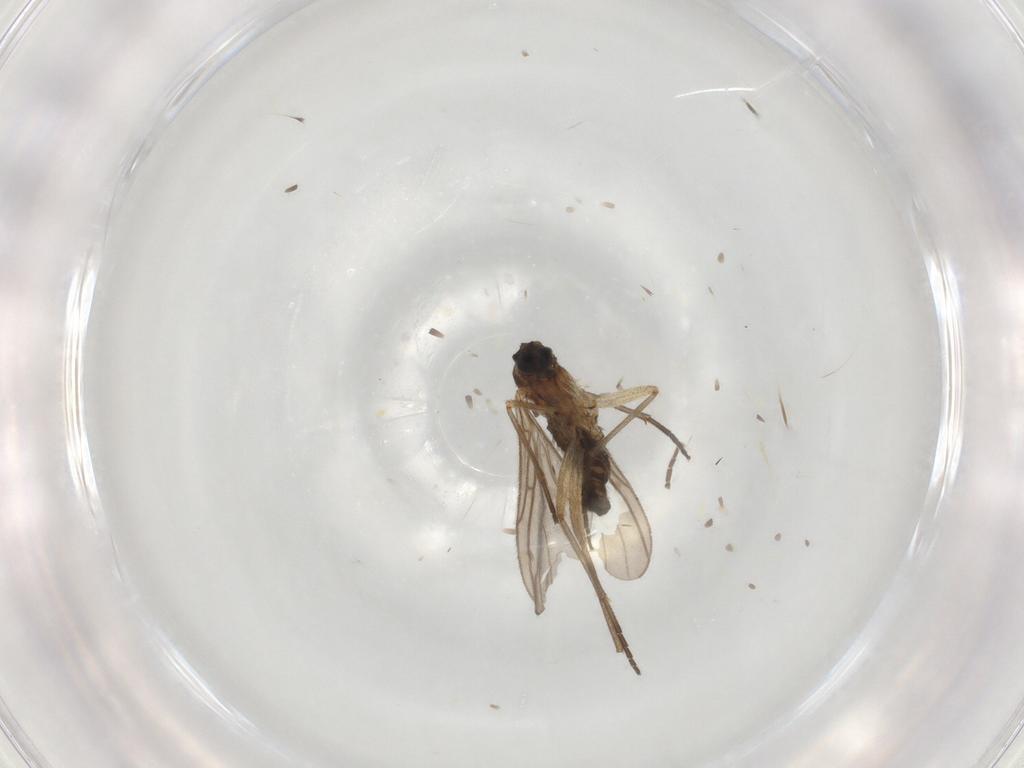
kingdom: Animalia
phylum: Arthropoda
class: Insecta
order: Diptera
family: Sciaridae
